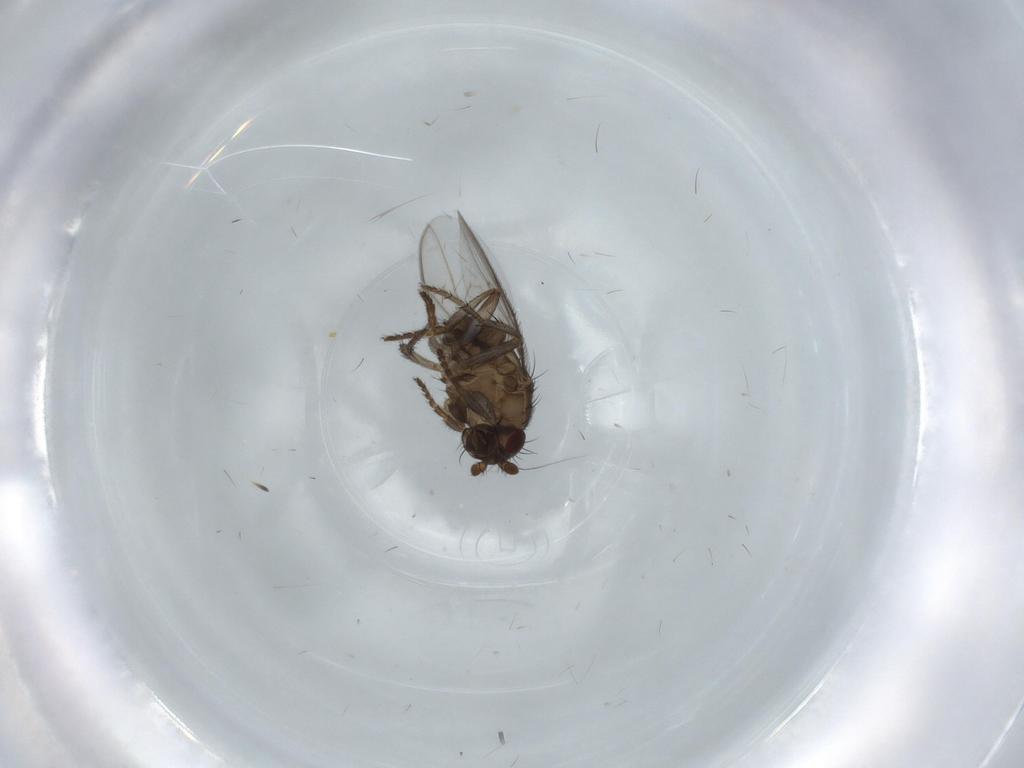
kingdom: Animalia
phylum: Arthropoda
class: Insecta
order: Diptera
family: Sphaeroceridae
